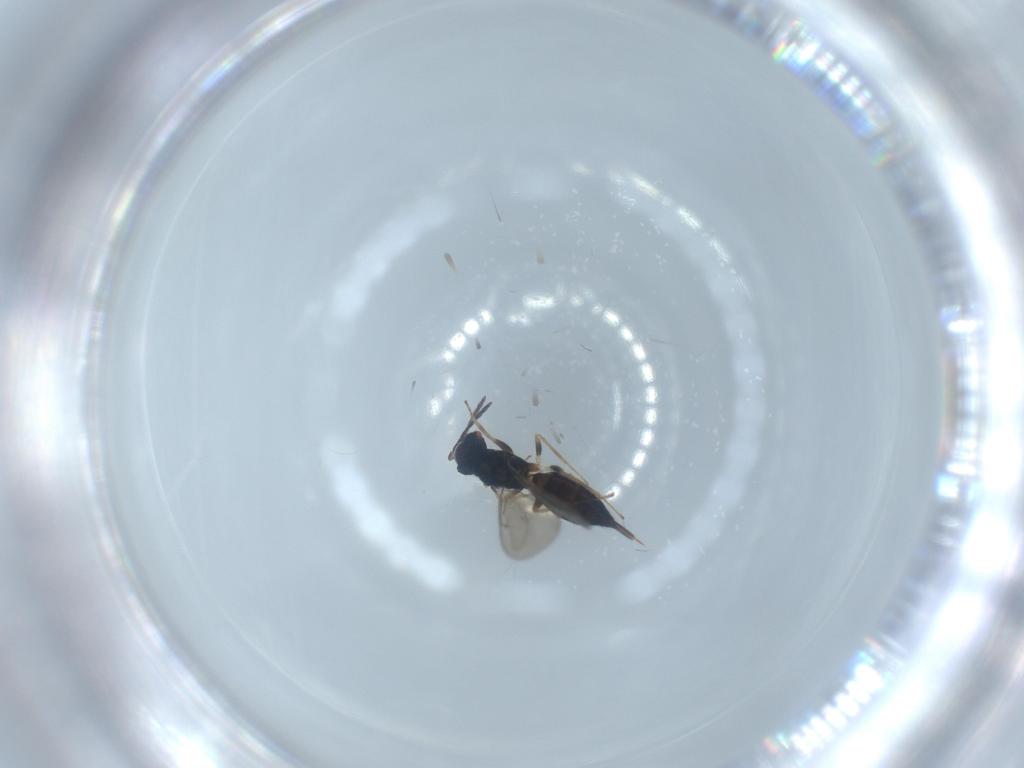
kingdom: Animalia
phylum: Arthropoda
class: Insecta
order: Hymenoptera
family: Eulophidae
